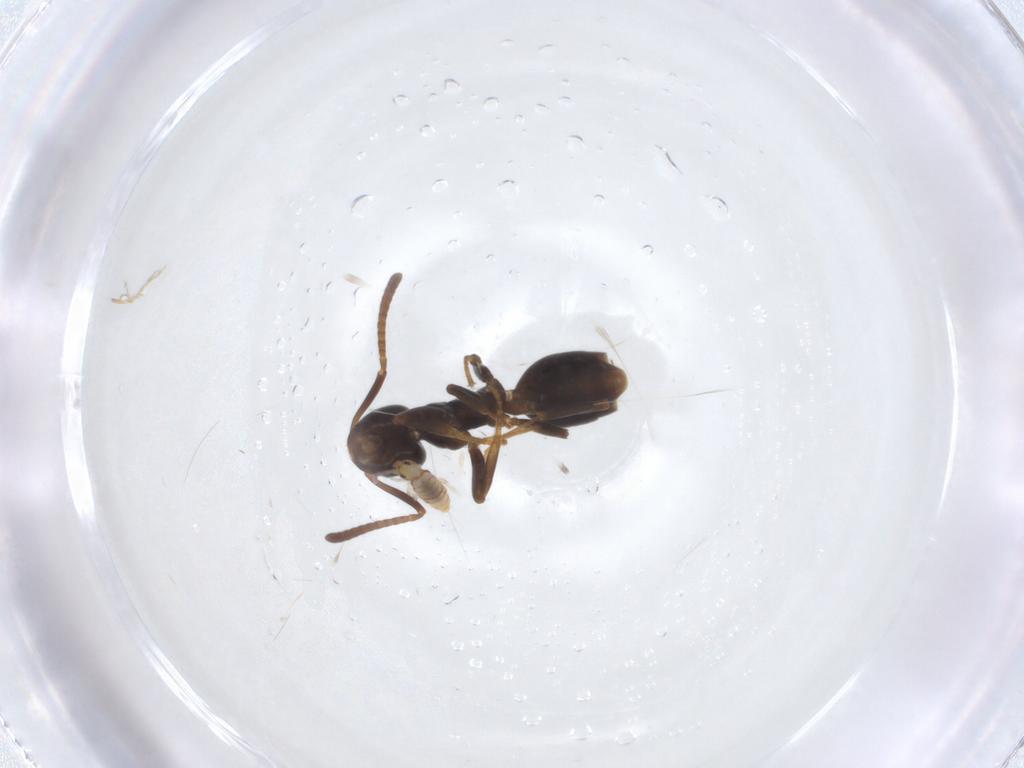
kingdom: Animalia
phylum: Arthropoda
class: Insecta
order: Hymenoptera
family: Formicidae
